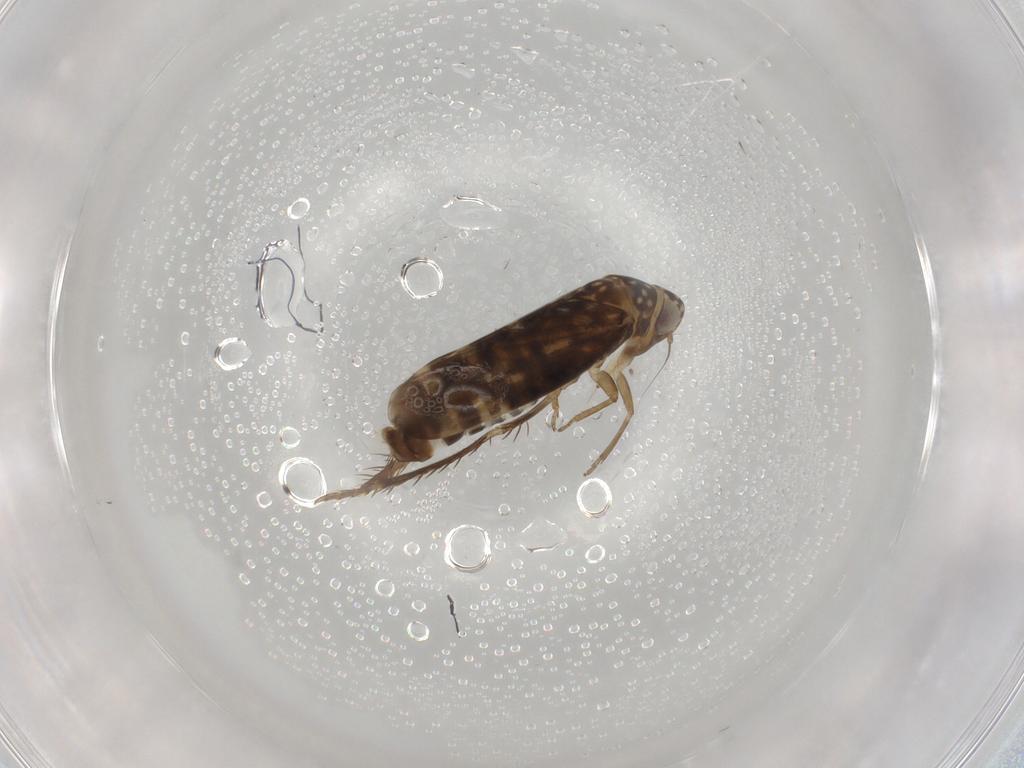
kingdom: Animalia
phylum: Arthropoda
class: Insecta
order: Hemiptera
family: Cicadellidae
